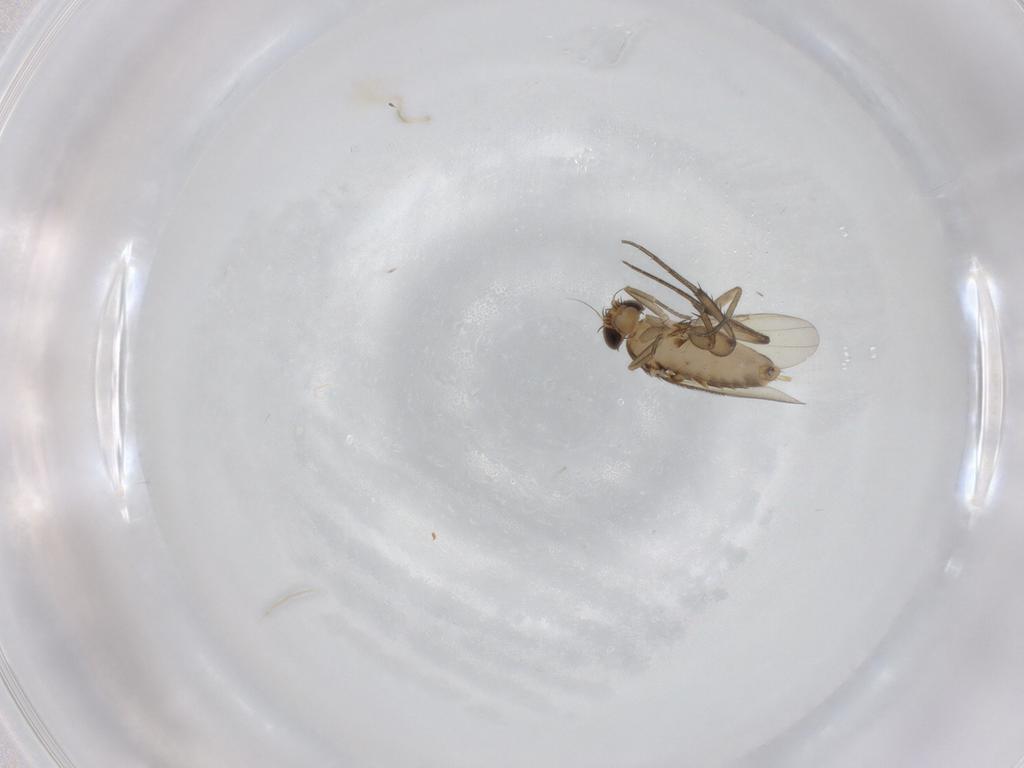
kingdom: Animalia
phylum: Arthropoda
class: Insecta
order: Diptera
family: Phoridae
